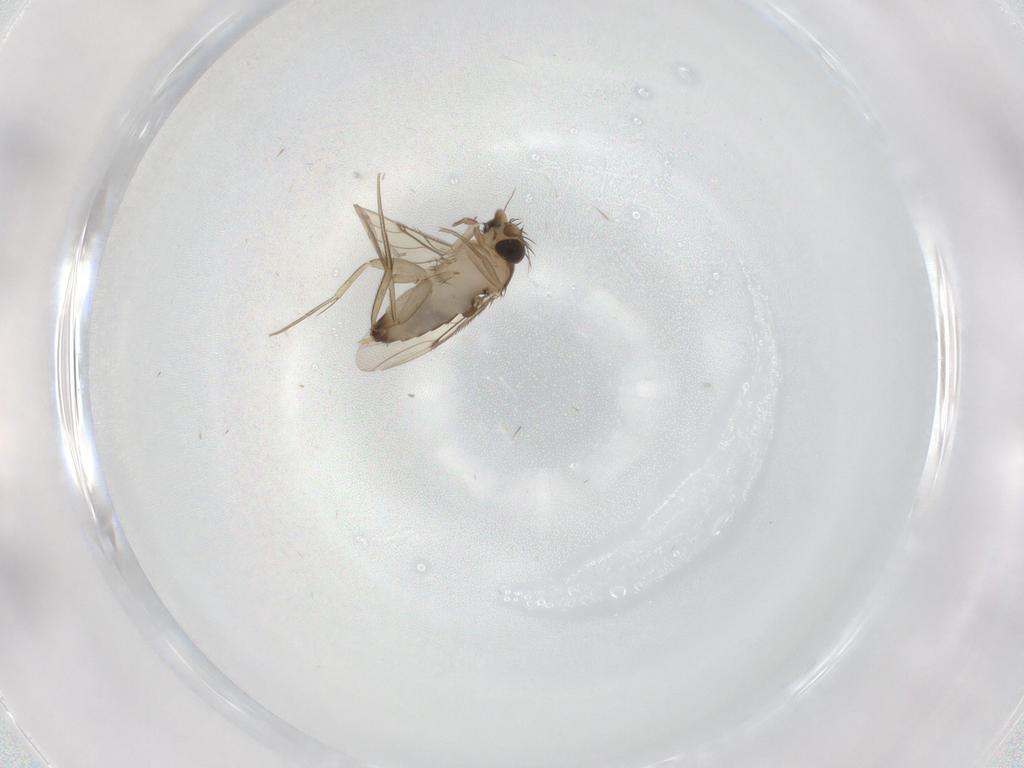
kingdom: Animalia
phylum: Arthropoda
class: Insecta
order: Diptera
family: Phoridae
